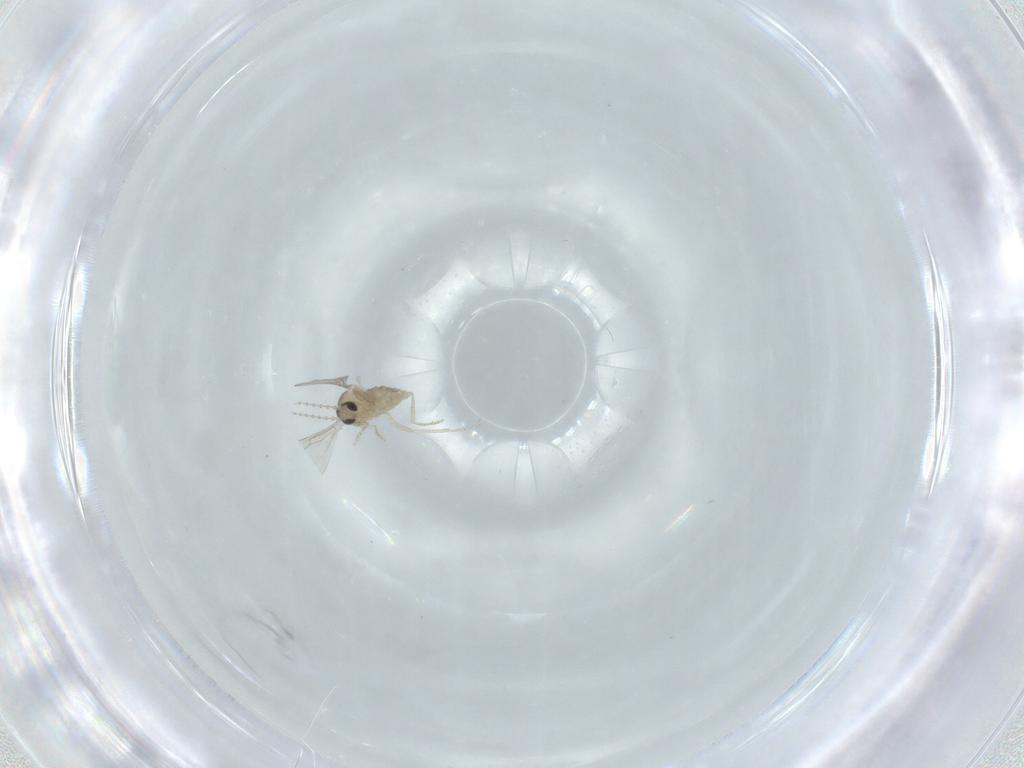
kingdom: Animalia
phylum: Arthropoda
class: Insecta
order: Diptera
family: Cecidomyiidae
